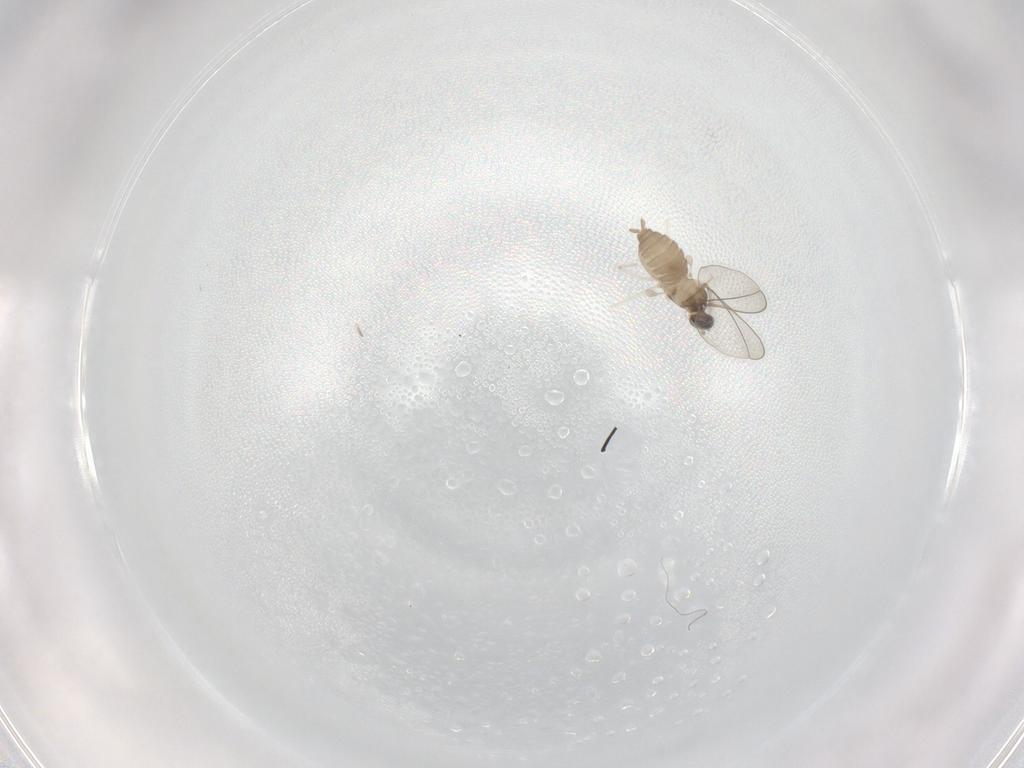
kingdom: Animalia
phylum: Arthropoda
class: Insecta
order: Diptera
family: Cecidomyiidae
